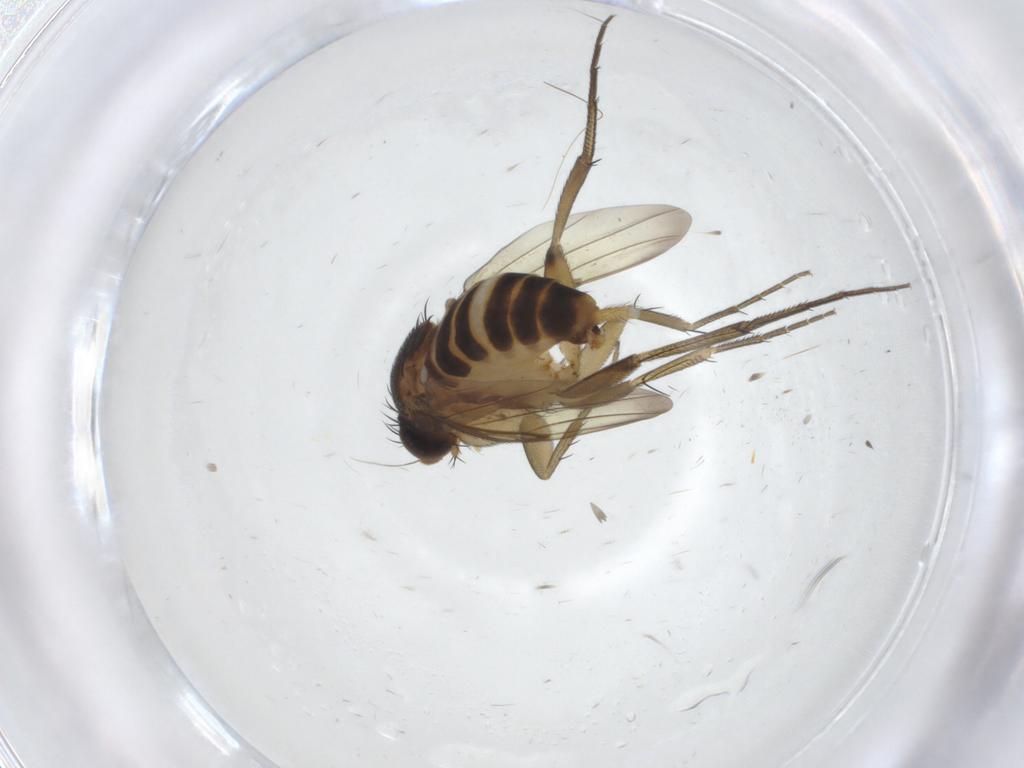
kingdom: Animalia
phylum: Arthropoda
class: Insecta
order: Diptera
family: Phoridae
